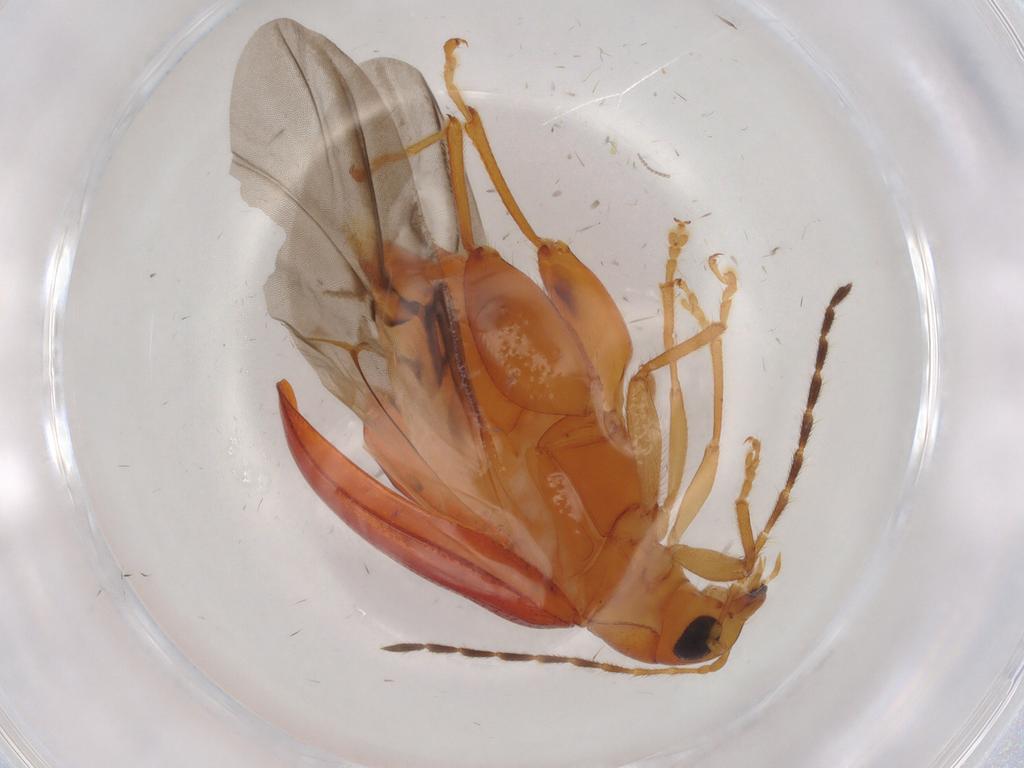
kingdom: Animalia
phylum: Arthropoda
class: Insecta
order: Coleoptera
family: Chrysomelidae
